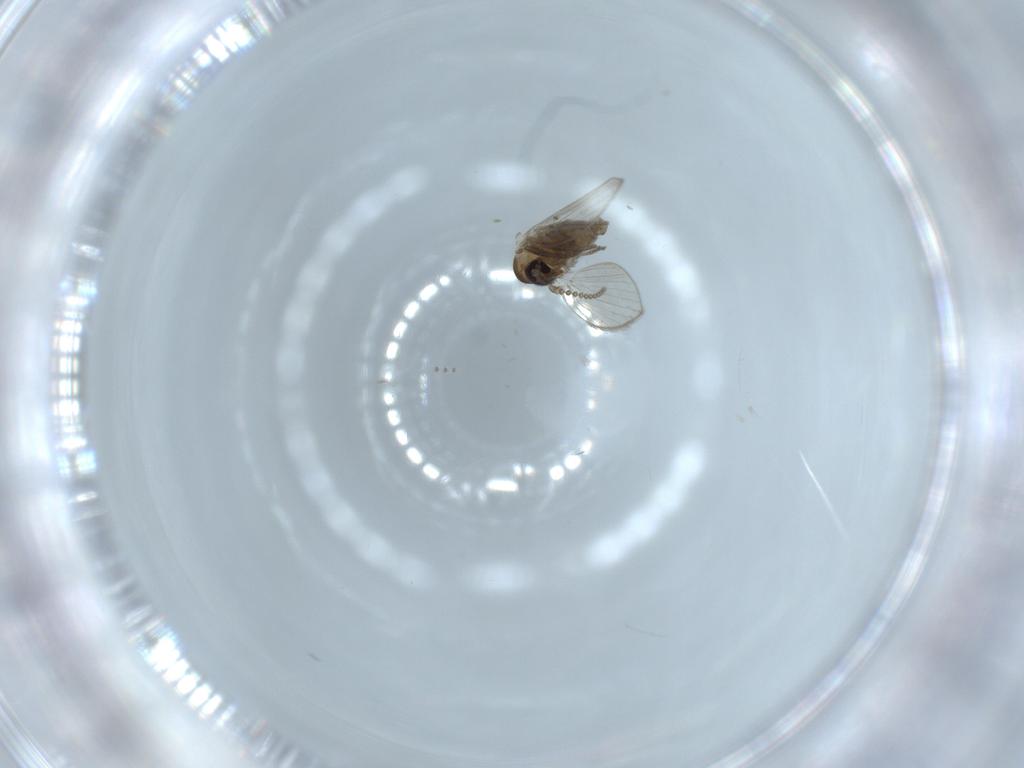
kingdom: Animalia
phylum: Arthropoda
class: Insecta
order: Diptera
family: Psychodidae
